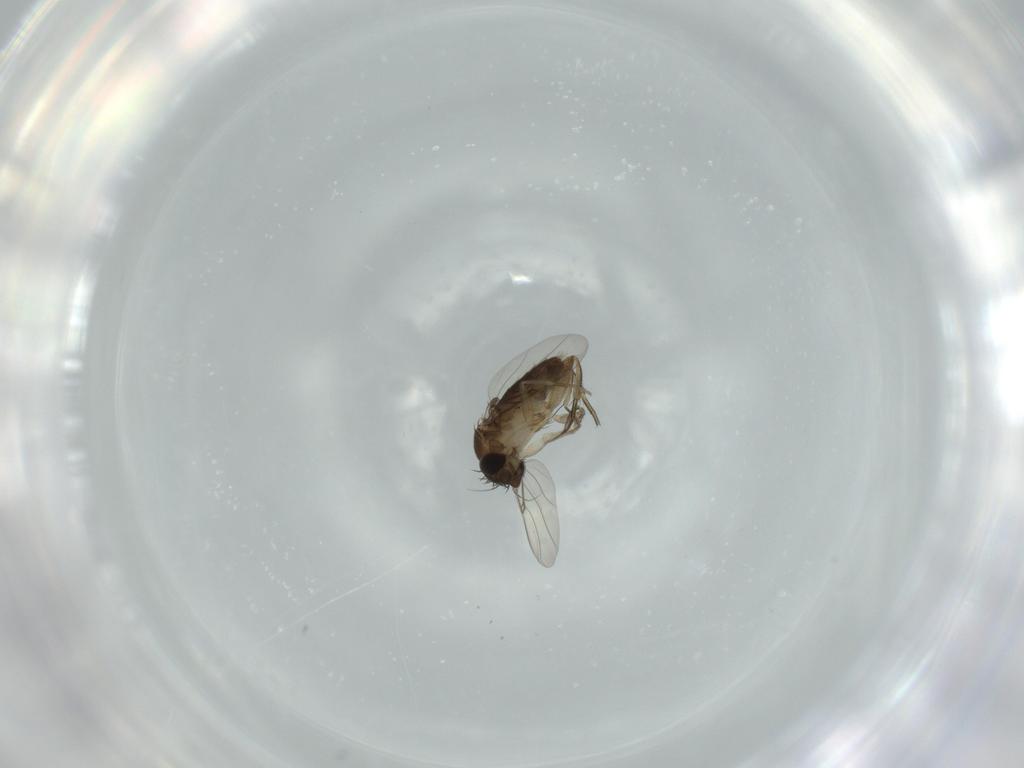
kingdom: Animalia
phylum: Arthropoda
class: Insecta
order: Diptera
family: Phoridae
